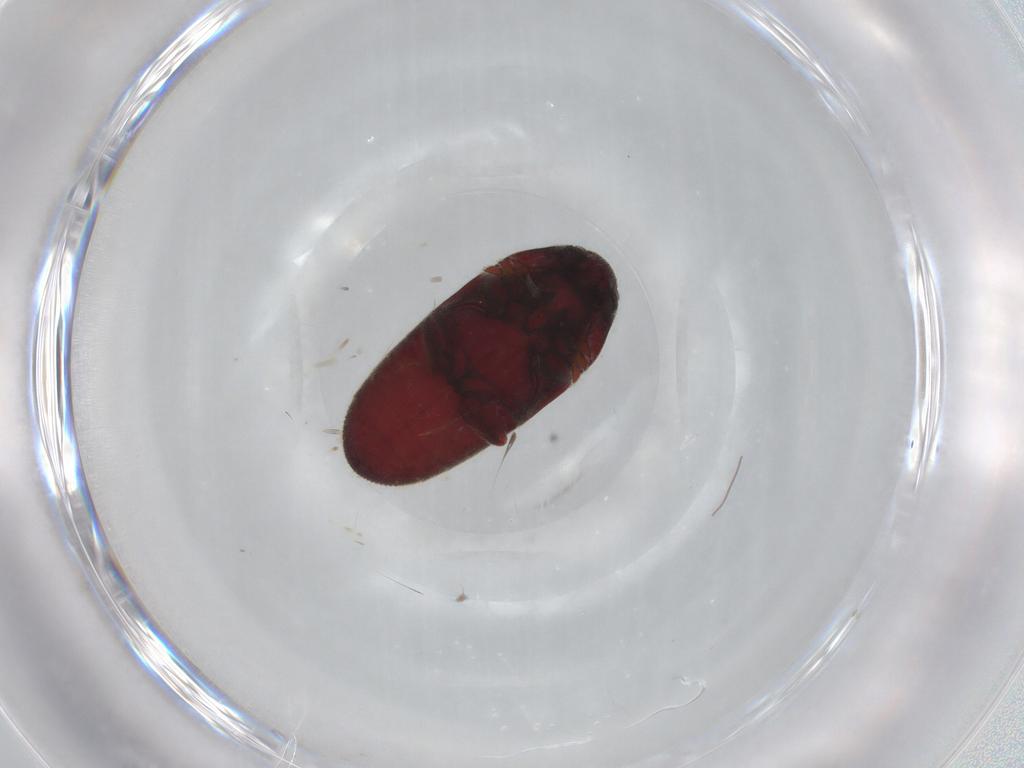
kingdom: Animalia
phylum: Arthropoda
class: Insecta
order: Coleoptera
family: Throscidae
